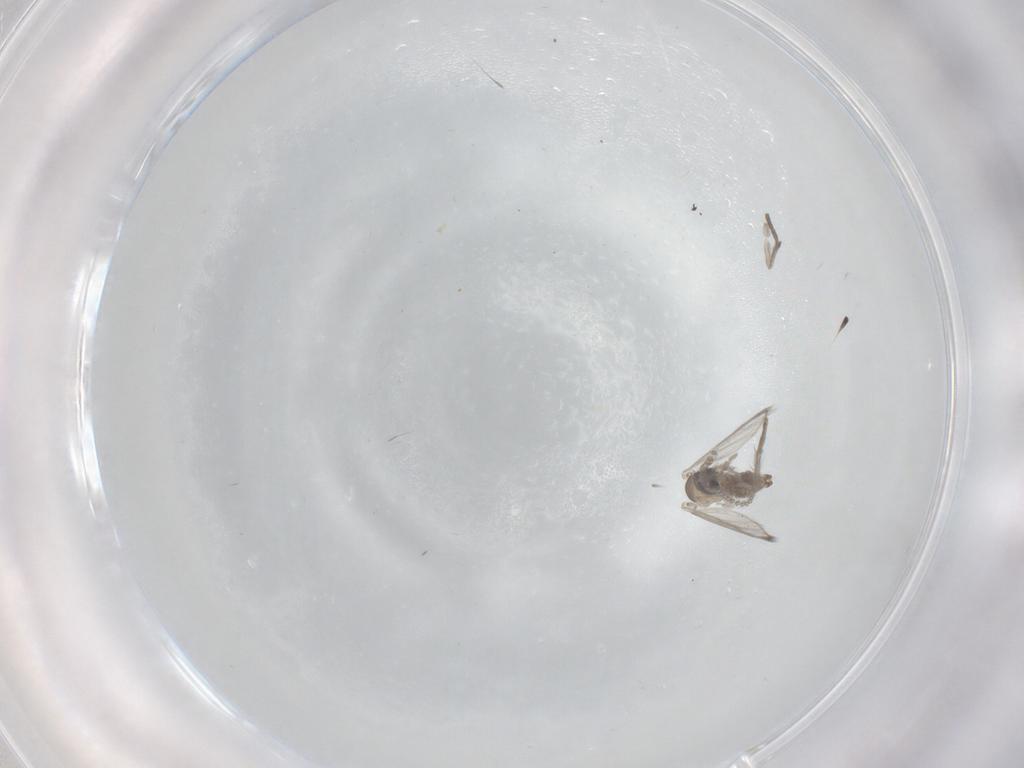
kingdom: Animalia
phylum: Arthropoda
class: Insecta
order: Diptera
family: Psychodidae
